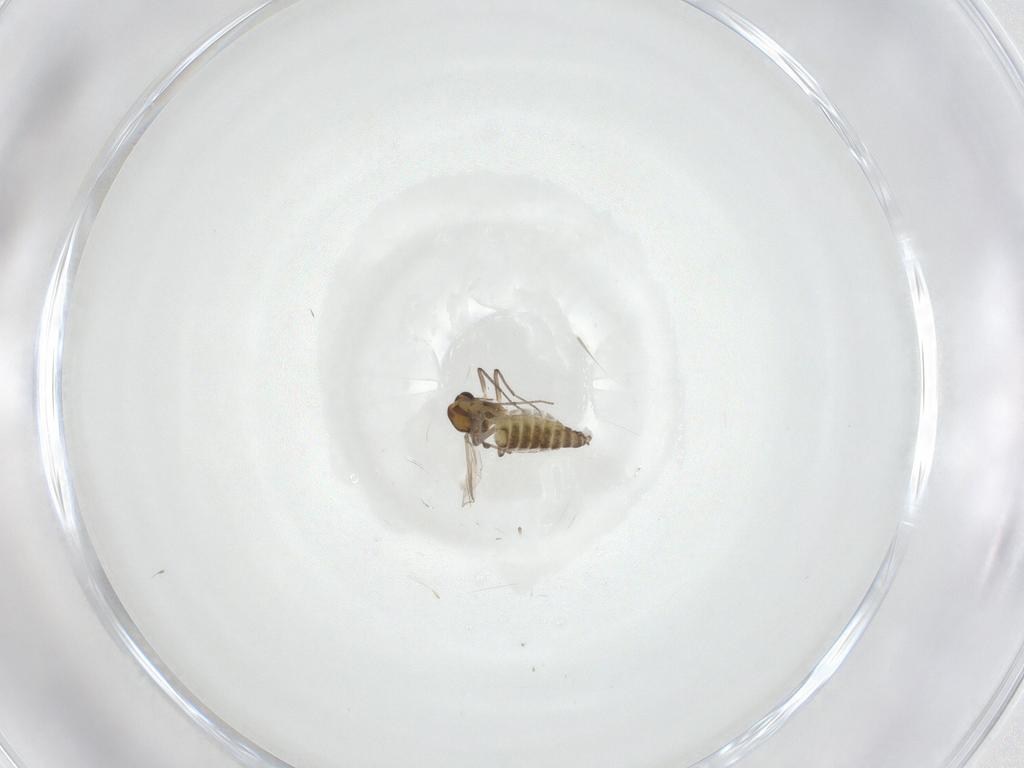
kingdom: Animalia
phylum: Arthropoda
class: Insecta
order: Diptera
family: Chironomidae
